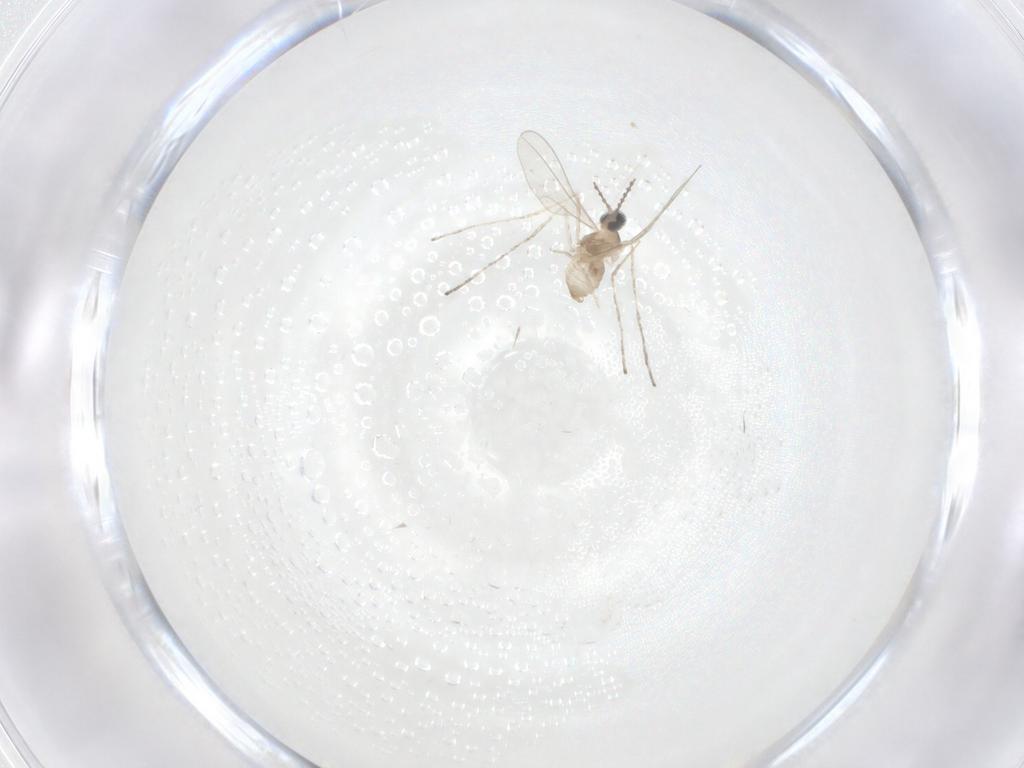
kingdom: Animalia
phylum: Arthropoda
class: Insecta
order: Diptera
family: Cecidomyiidae
